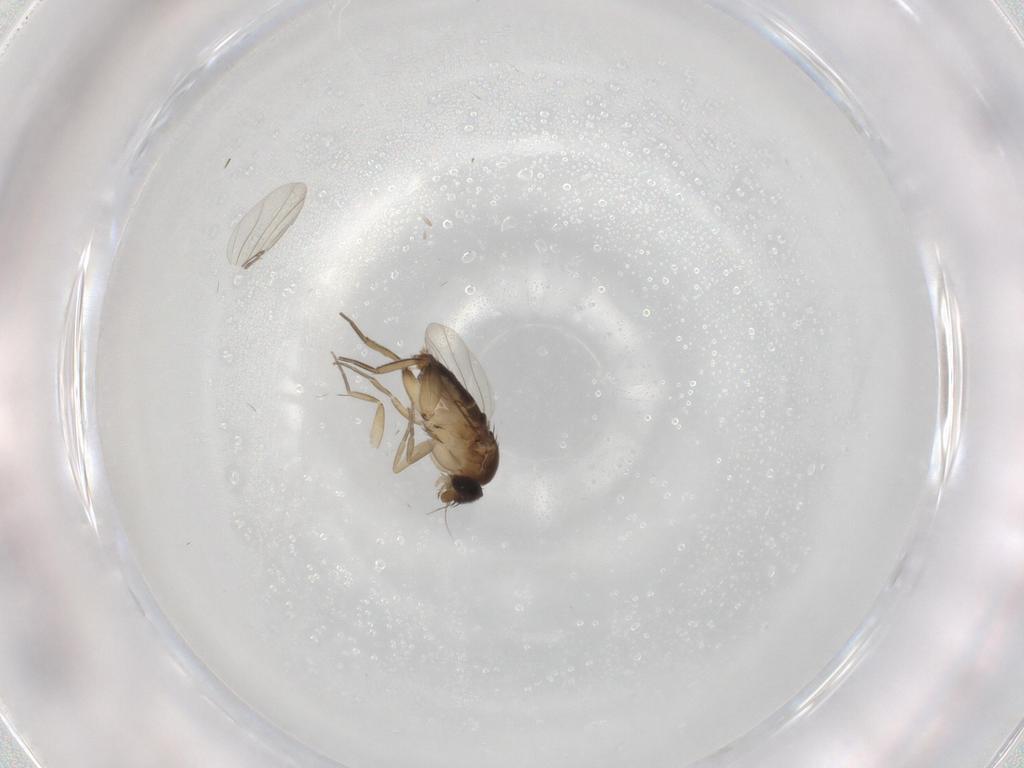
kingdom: Animalia
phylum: Arthropoda
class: Insecta
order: Diptera
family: Phoridae
